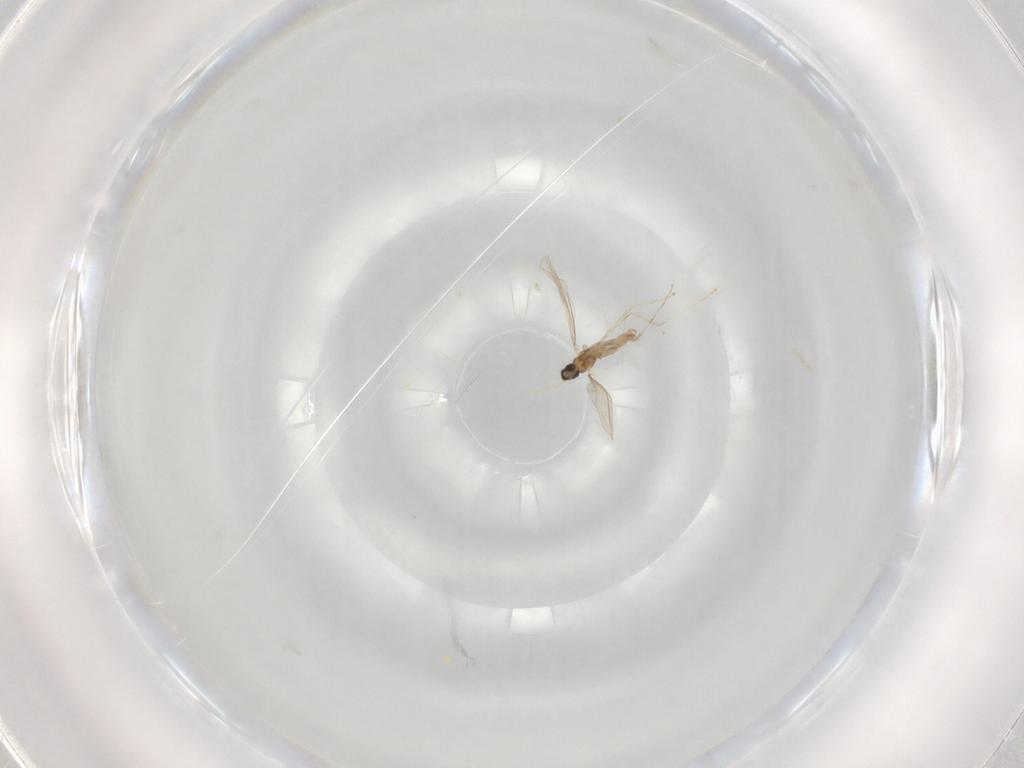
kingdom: Animalia
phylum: Arthropoda
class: Insecta
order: Diptera
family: Cecidomyiidae
